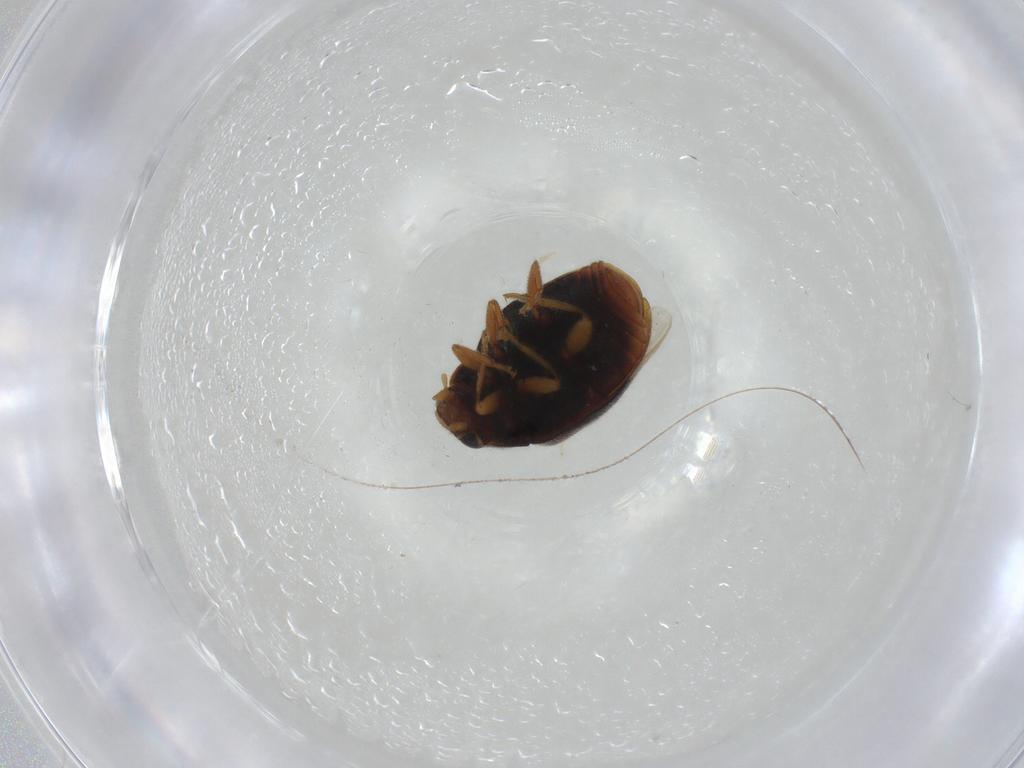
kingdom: Animalia
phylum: Arthropoda
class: Insecta
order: Coleoptera
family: Coccinellidae
